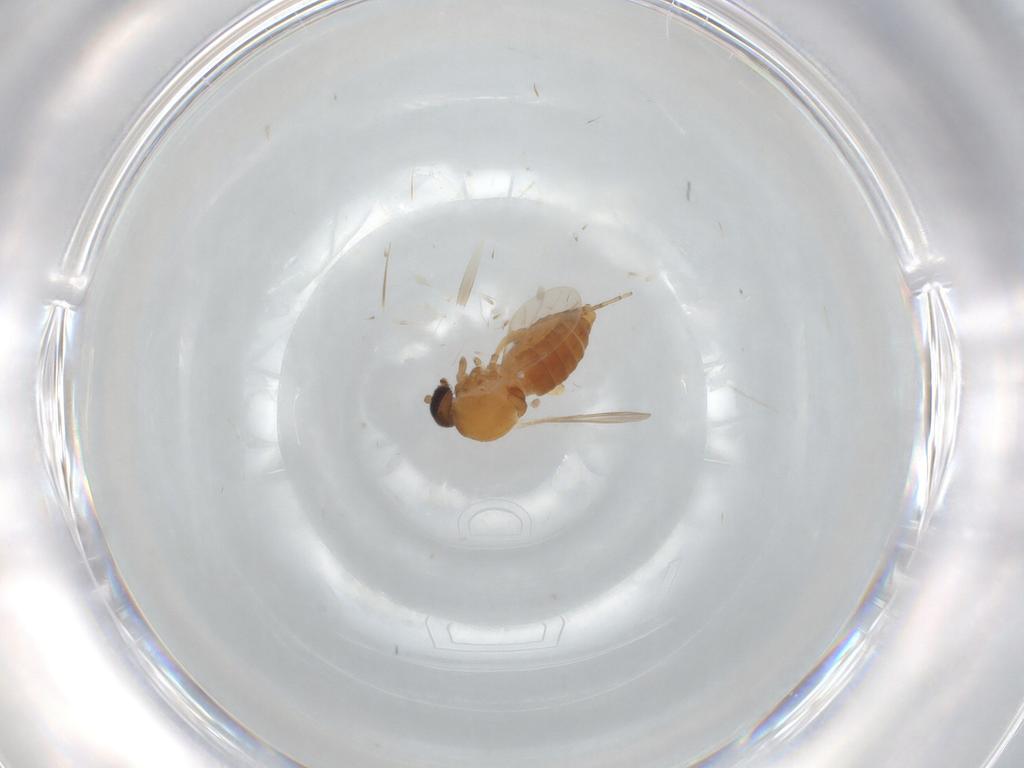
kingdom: Animalia
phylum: Arthropoda
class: Insecta
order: Diptera
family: Ceratopogonidae
